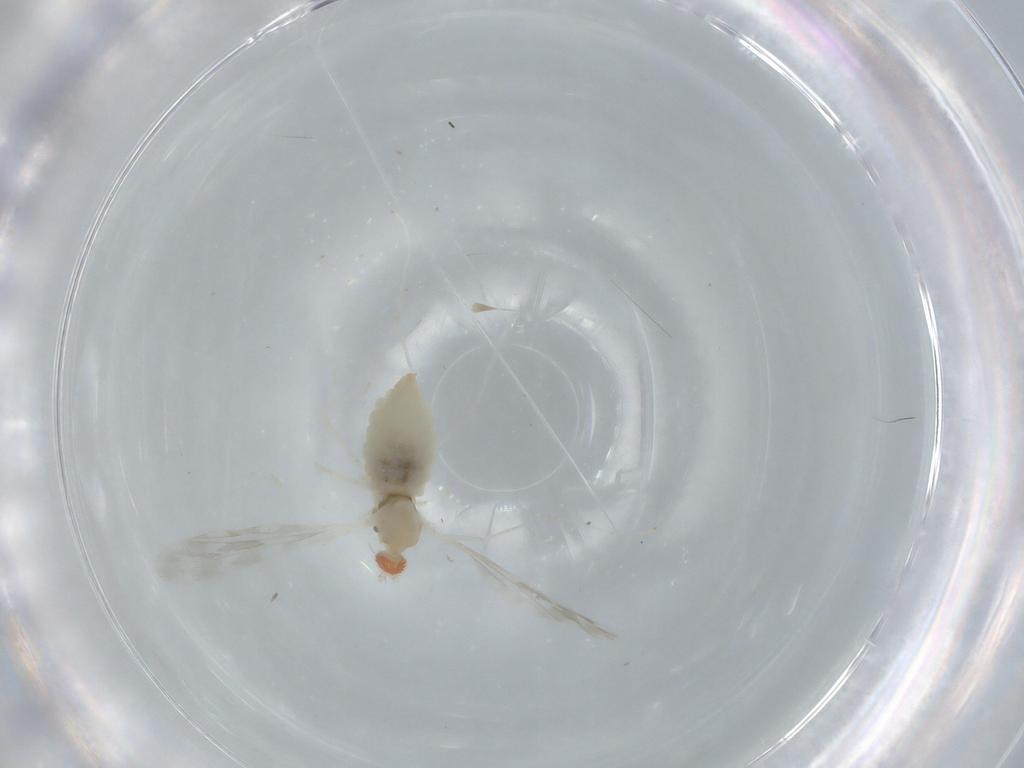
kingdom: Animalia
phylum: Arthropoda
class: Insecta
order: Diptera
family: Cecidomyiidae
